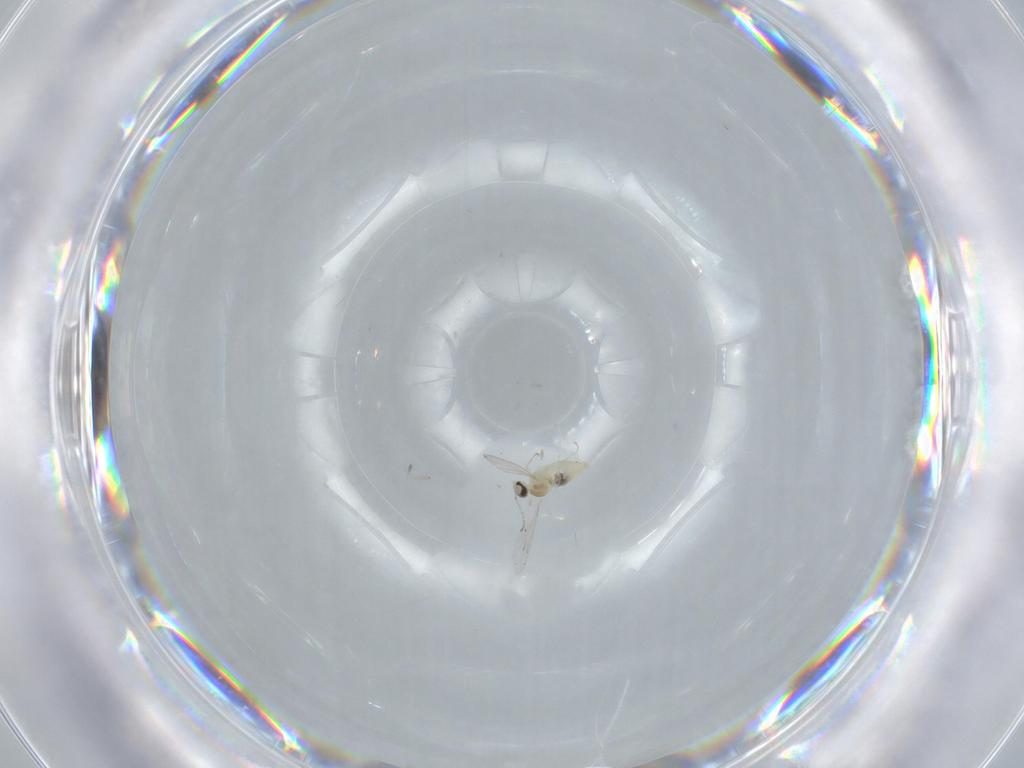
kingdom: Animalia
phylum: Arthropoda
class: Insecta
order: Diptera
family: Cecidomyiidae
